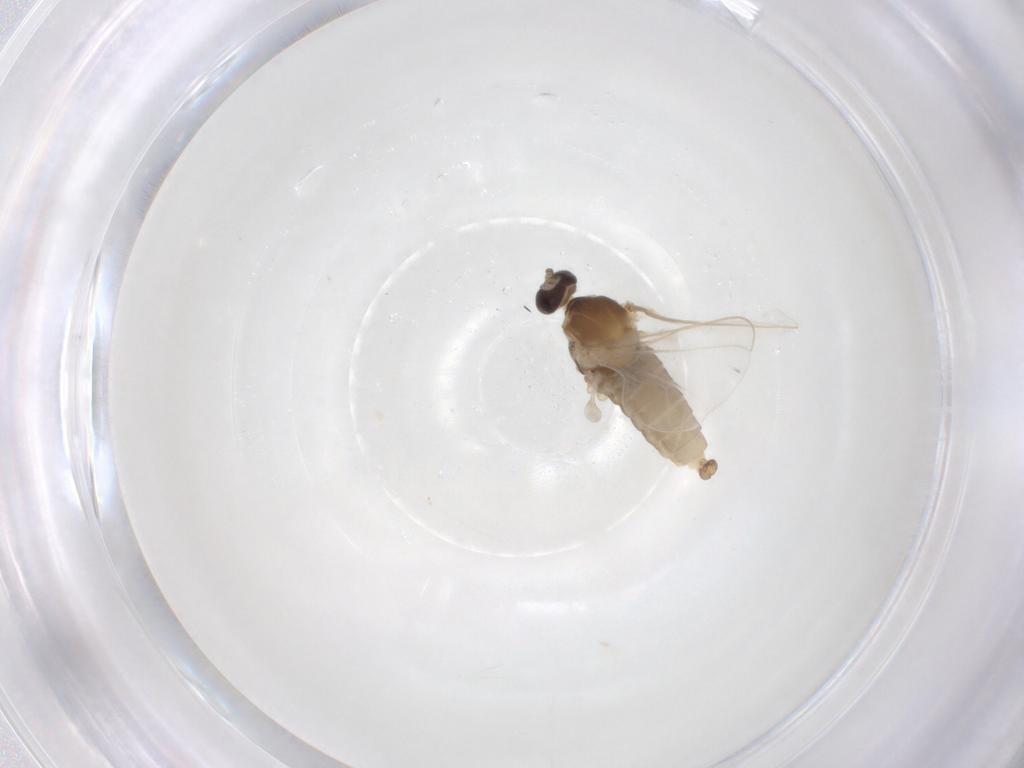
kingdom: Animalia
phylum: Arthropoda
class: Insecta
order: Diptera
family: Cecidomyiidae
